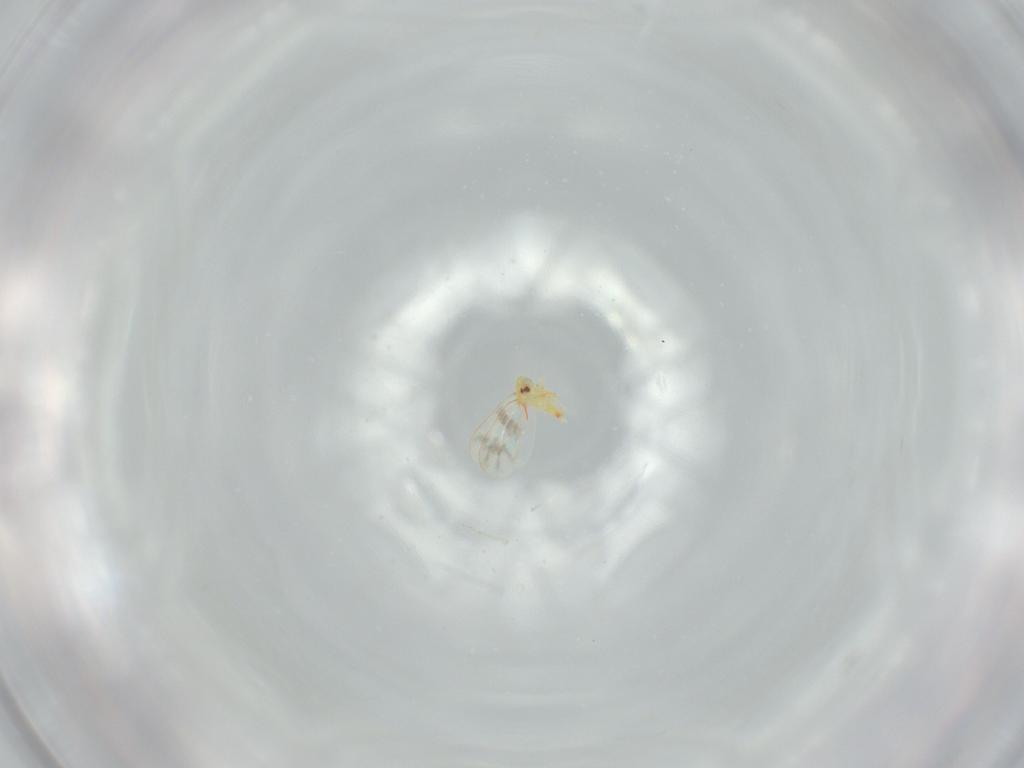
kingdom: Animalia
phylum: Arthropoda
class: Insecta
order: Hemiptera
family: Aleyrodidae
